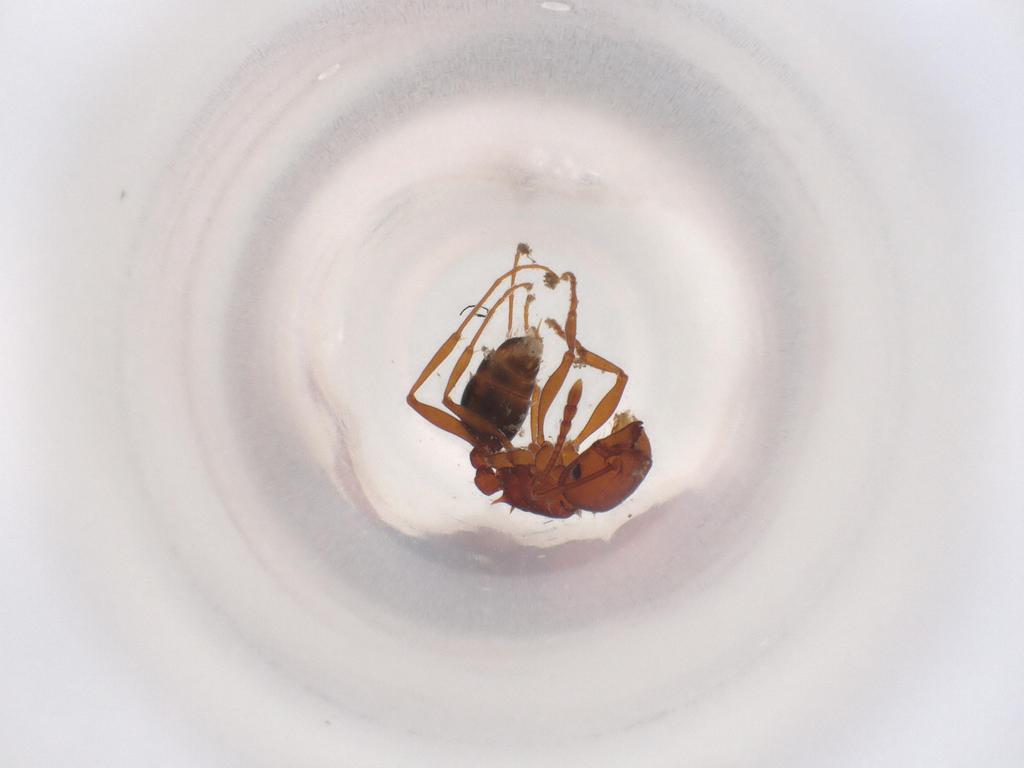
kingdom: Animalia
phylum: Arthropoda
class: Insecta
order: Hymenoptera
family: Formicidae
